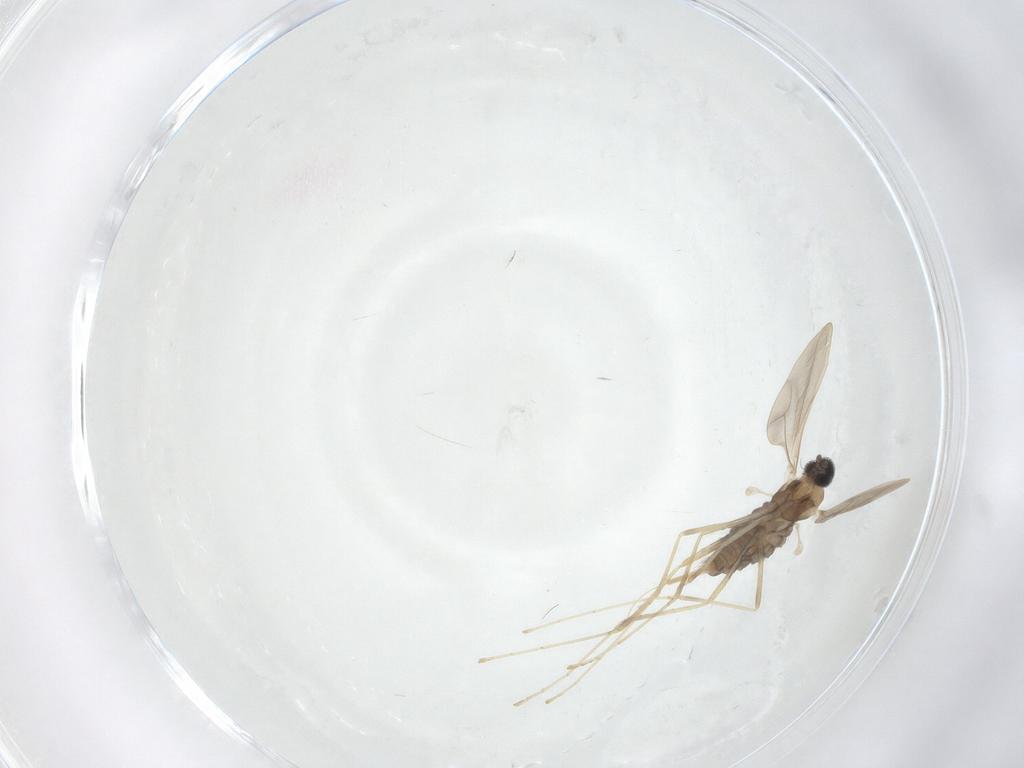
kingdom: Animalia
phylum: Arthropoda
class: Insecta
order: Diptera
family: Cecidomyiidae
